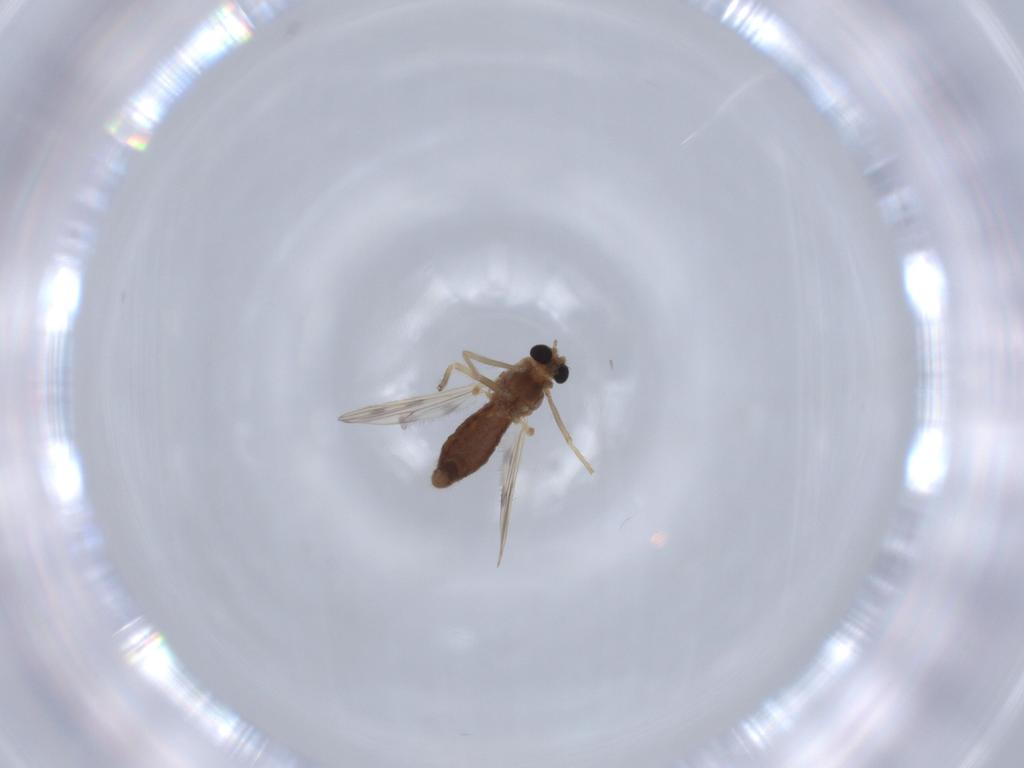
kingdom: Animalia
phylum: Arthropoda
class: Insecta
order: Diptera
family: Chironomidae
